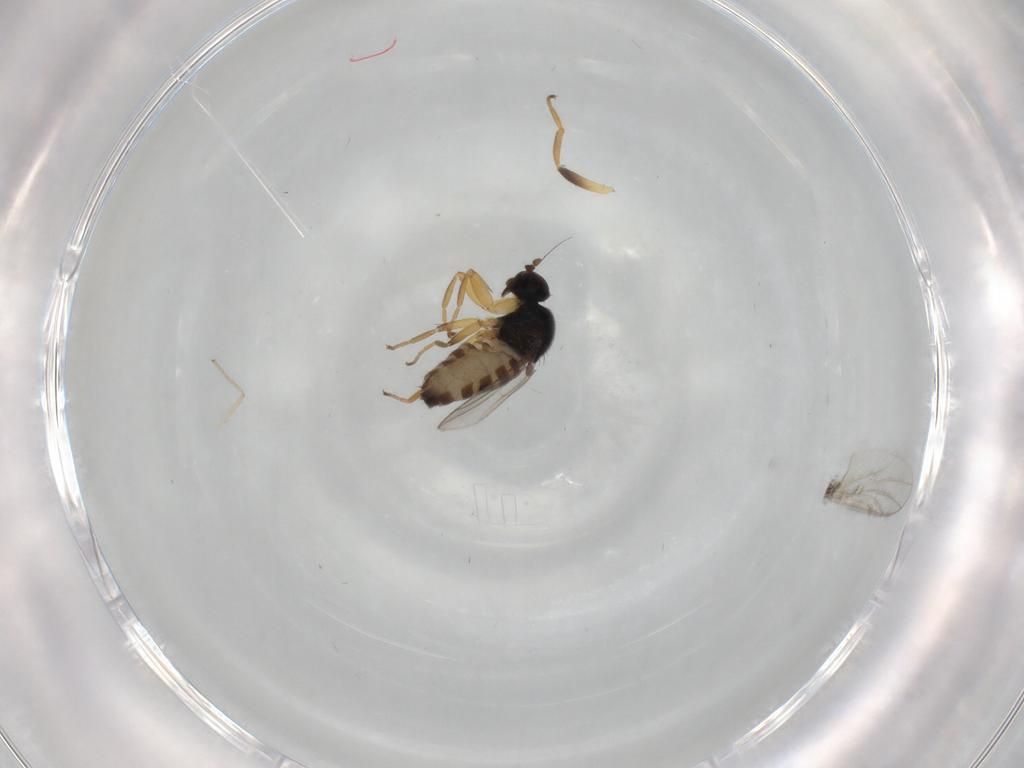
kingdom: Animalia
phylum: Arthropoda
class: Insecta
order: Diptera
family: Hybotidae
